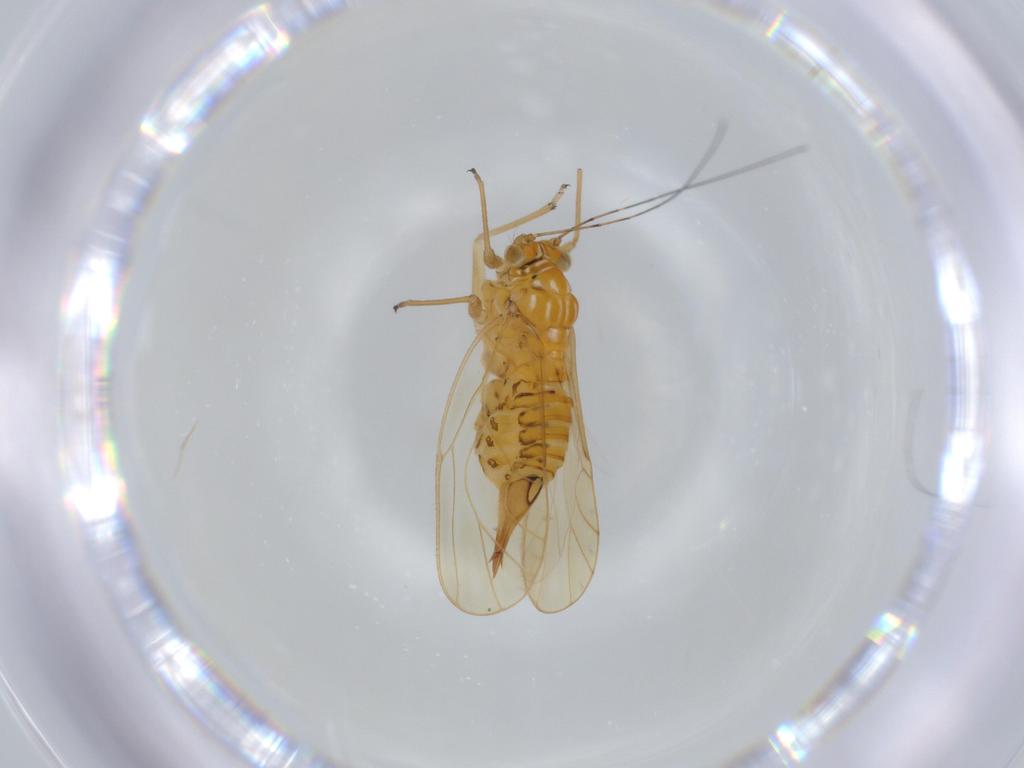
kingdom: Animalia
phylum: Arthropoda
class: Insecta
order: Hemiptera
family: Psyllidae
